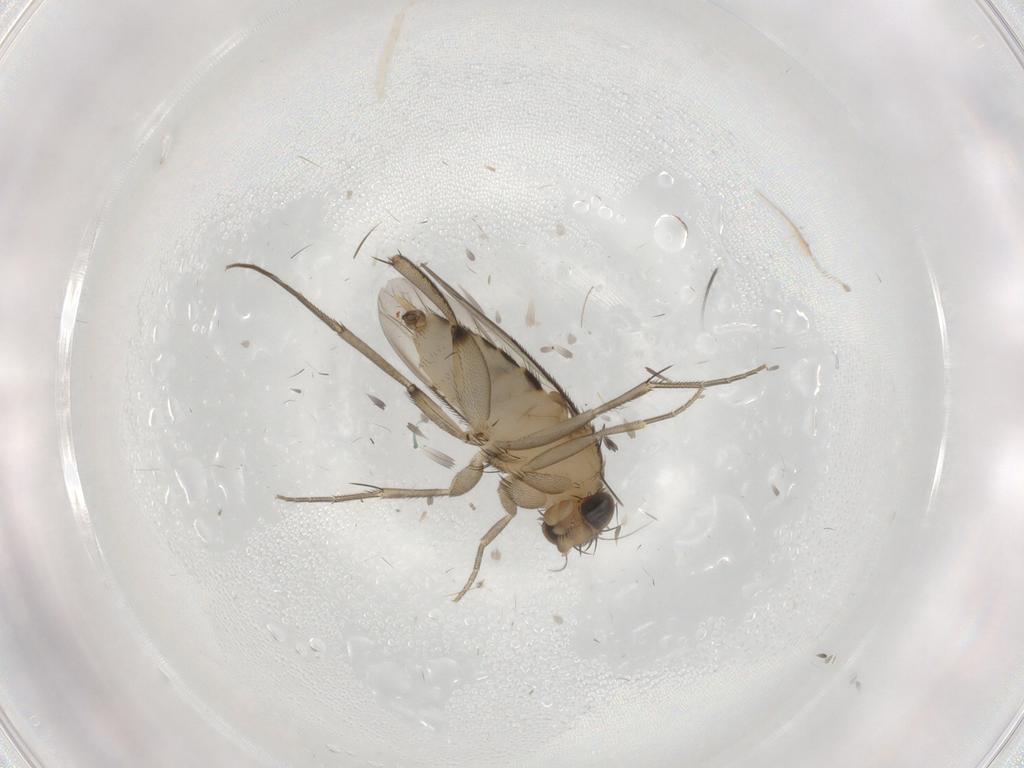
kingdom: Animalia
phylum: Arthropoda
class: Insecta
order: Diptera
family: Phoridae
